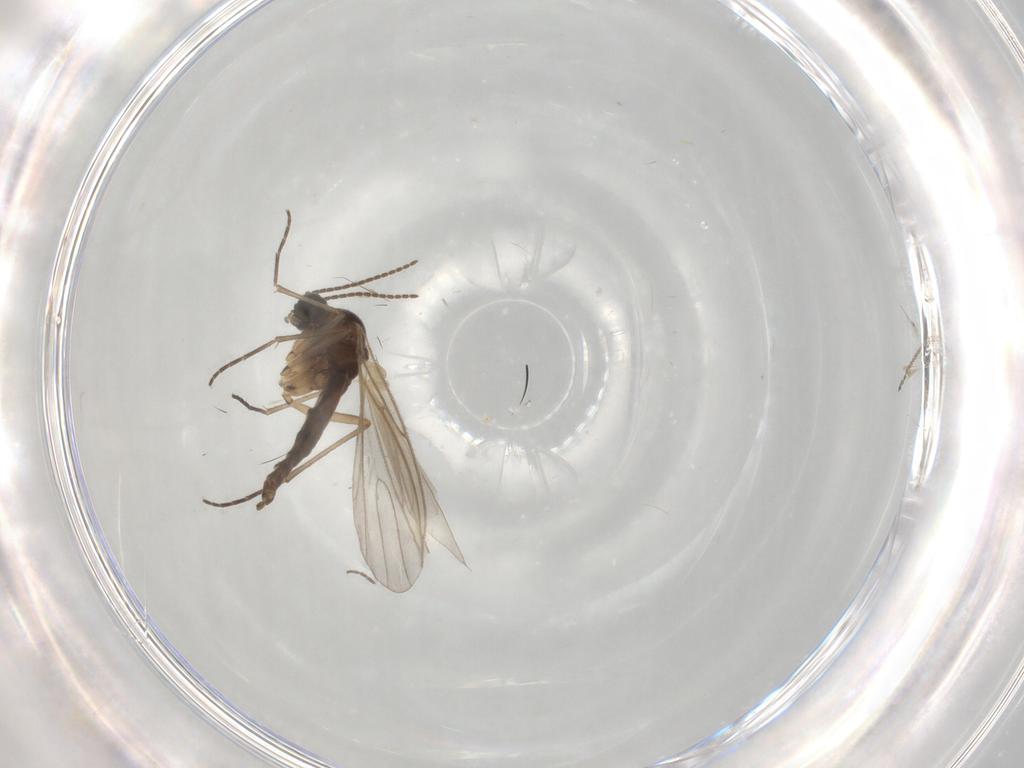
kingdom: Animalia
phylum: Arthropoda
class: Insecta
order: Diptera
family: Sciaridae
